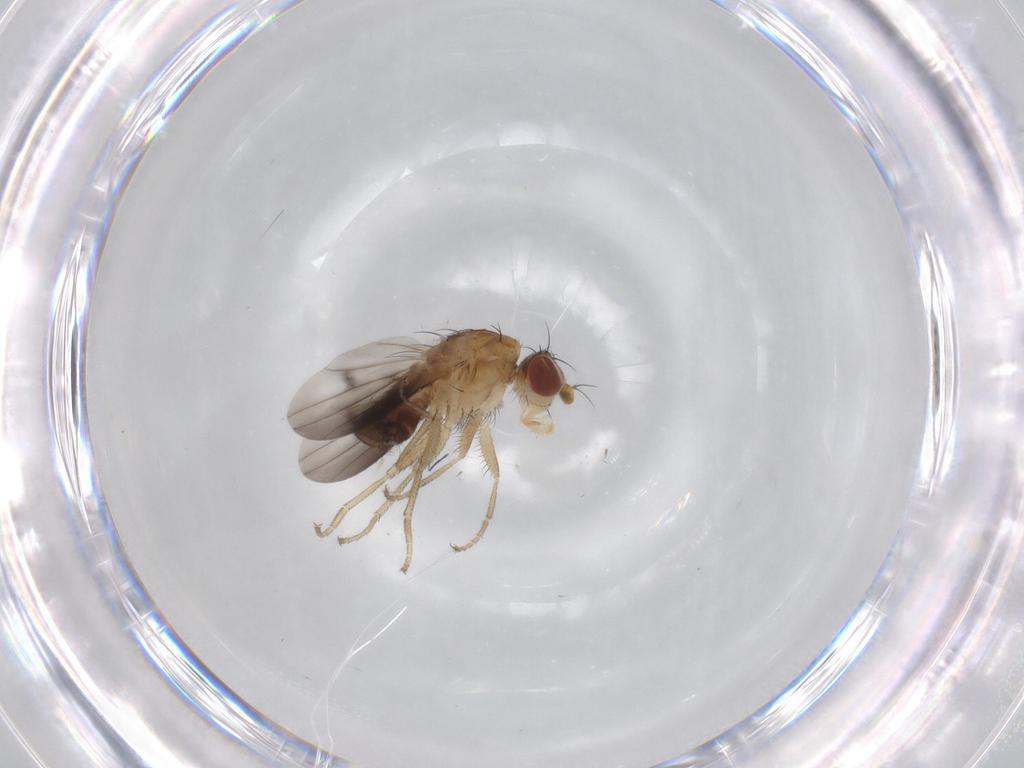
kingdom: Animalia
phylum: Arthropoda
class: Insecta
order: Diptera
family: Heleomyzidae
